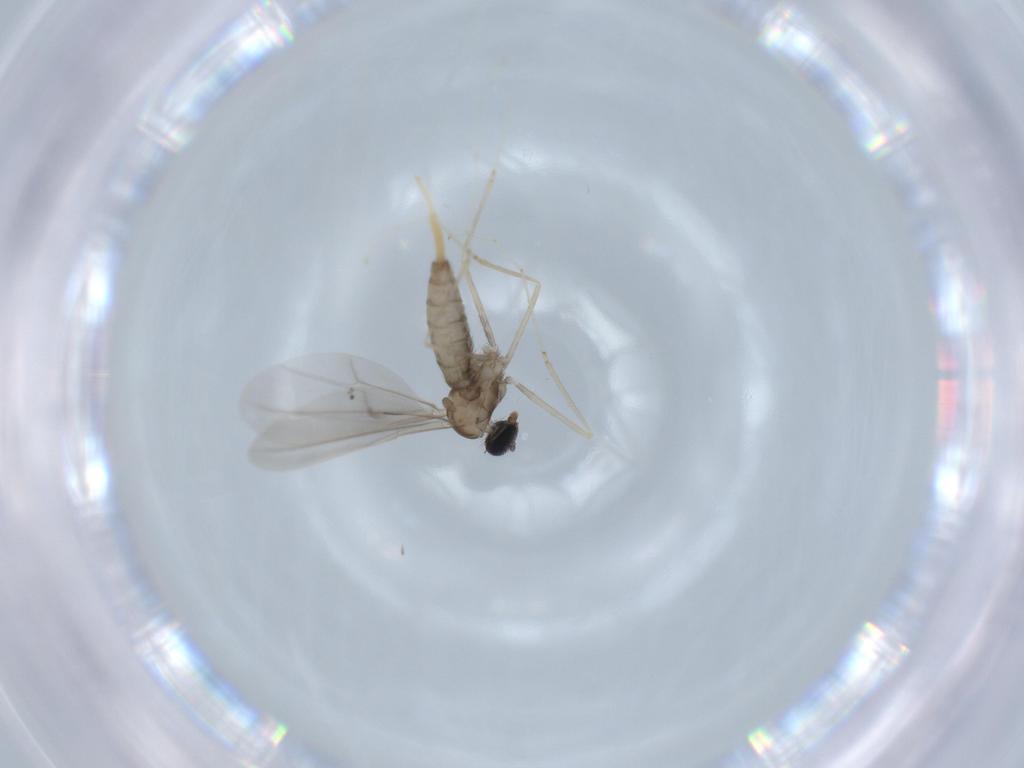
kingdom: Animalia
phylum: Arthropoda
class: Insecta
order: Diptera
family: Cecidomyiidae
